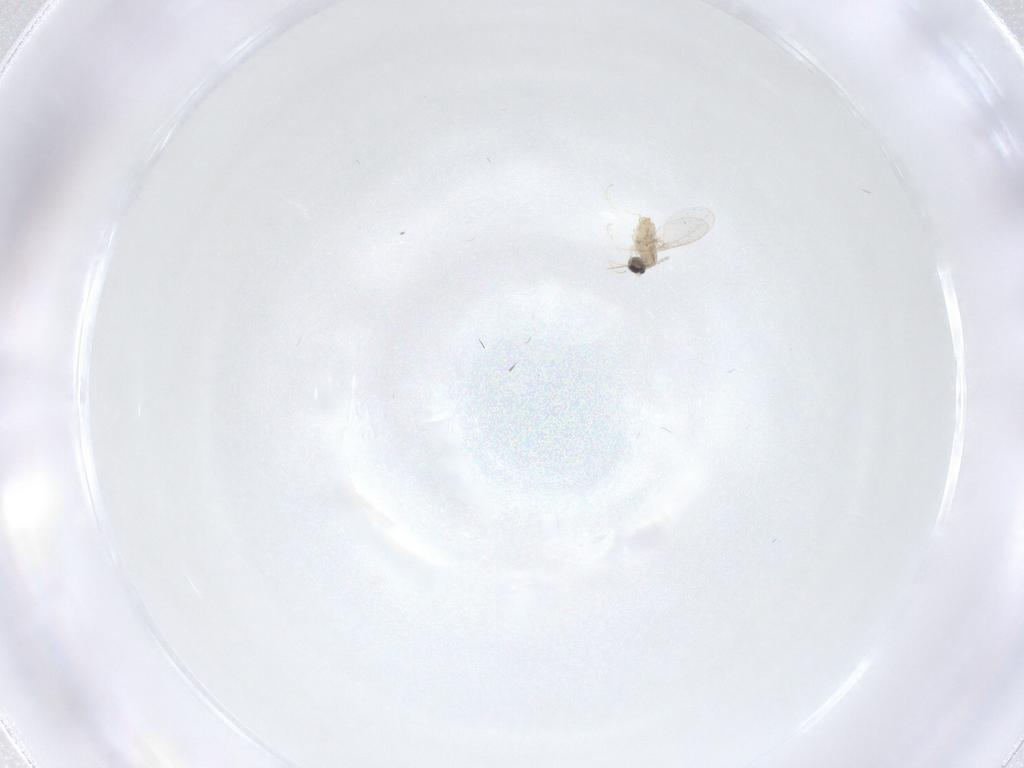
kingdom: Animalia
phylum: Arthropoda
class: Insecta
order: Diptera
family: Cecidomyiidae
